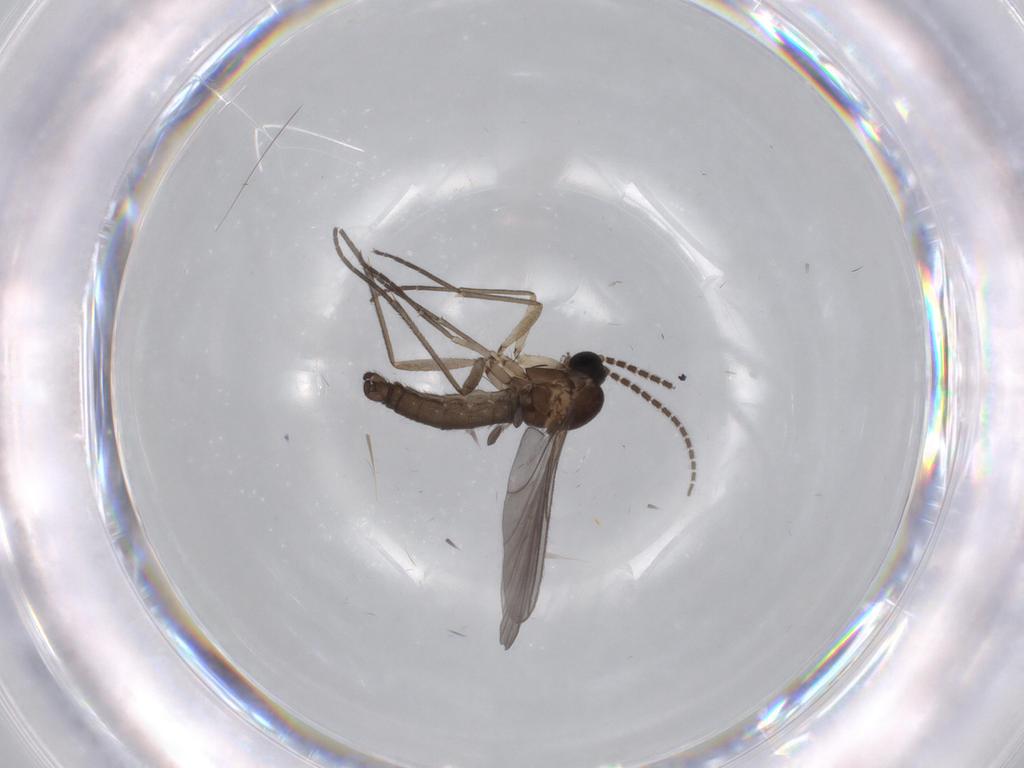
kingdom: Animalia
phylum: Arthropoda
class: Insecta
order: Diptera
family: Sciaridae
